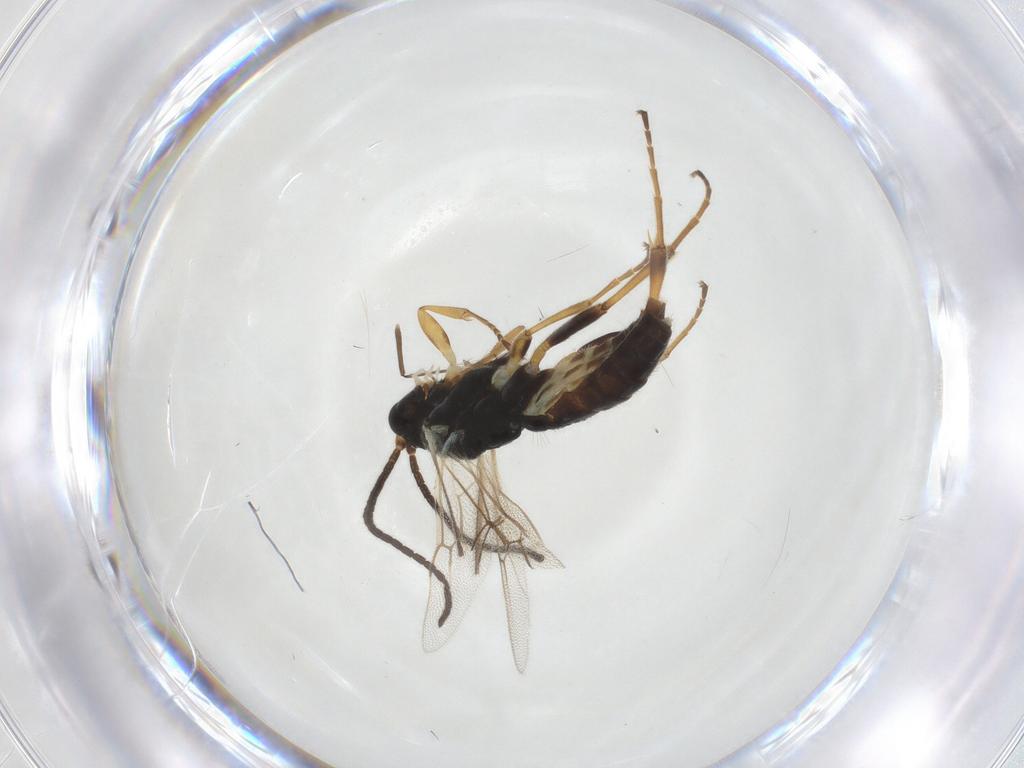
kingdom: Animalia
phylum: Arthropoda
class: Insecta
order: Hymenoptera
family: Ichneumonidae
